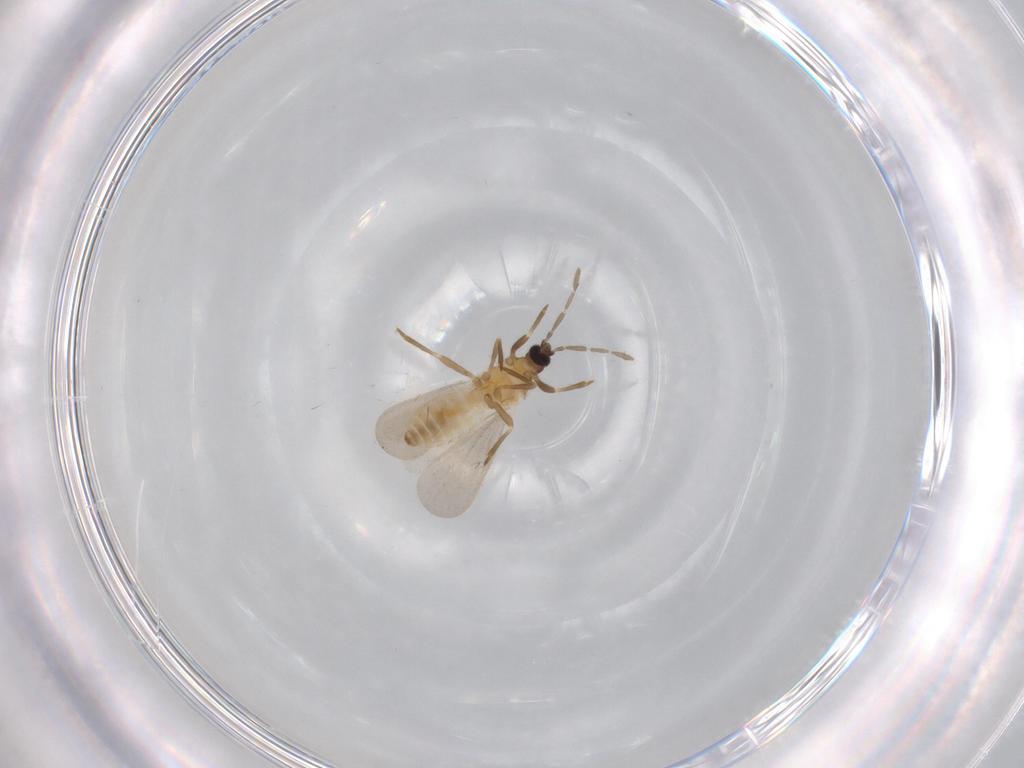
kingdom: Animalia
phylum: Arthropoda
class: Insecta
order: Hemiptera
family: Enicocephalidae
